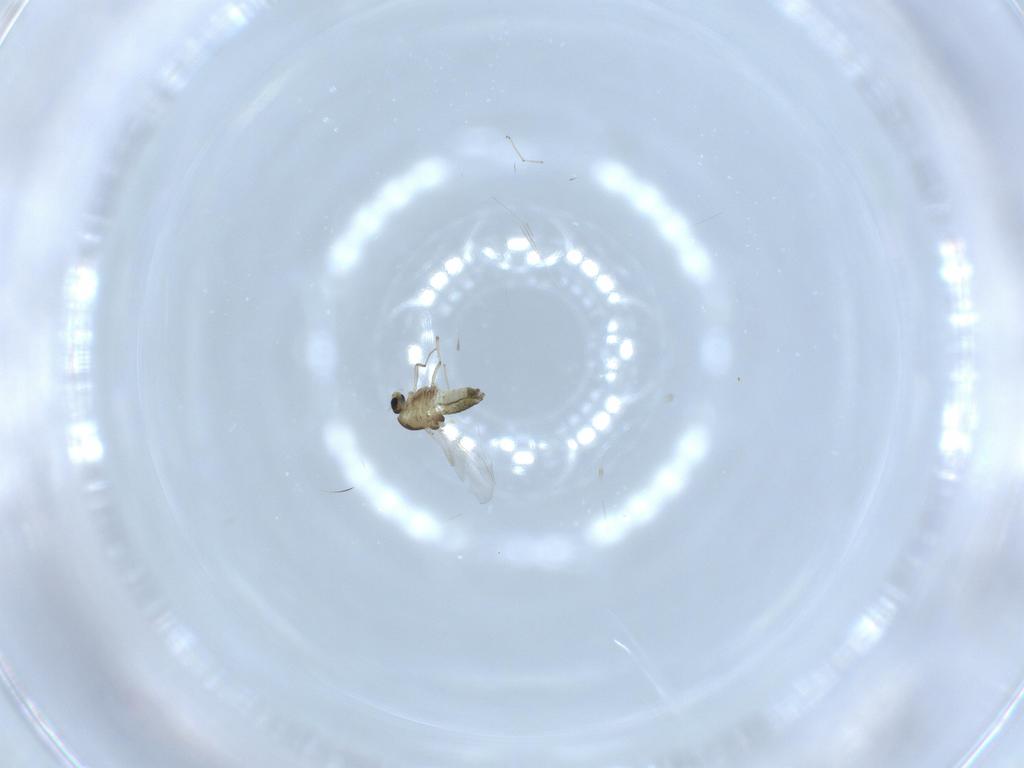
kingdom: Animalia
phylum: Arthropoda
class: Insecta
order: Diptera
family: Chironomidae
